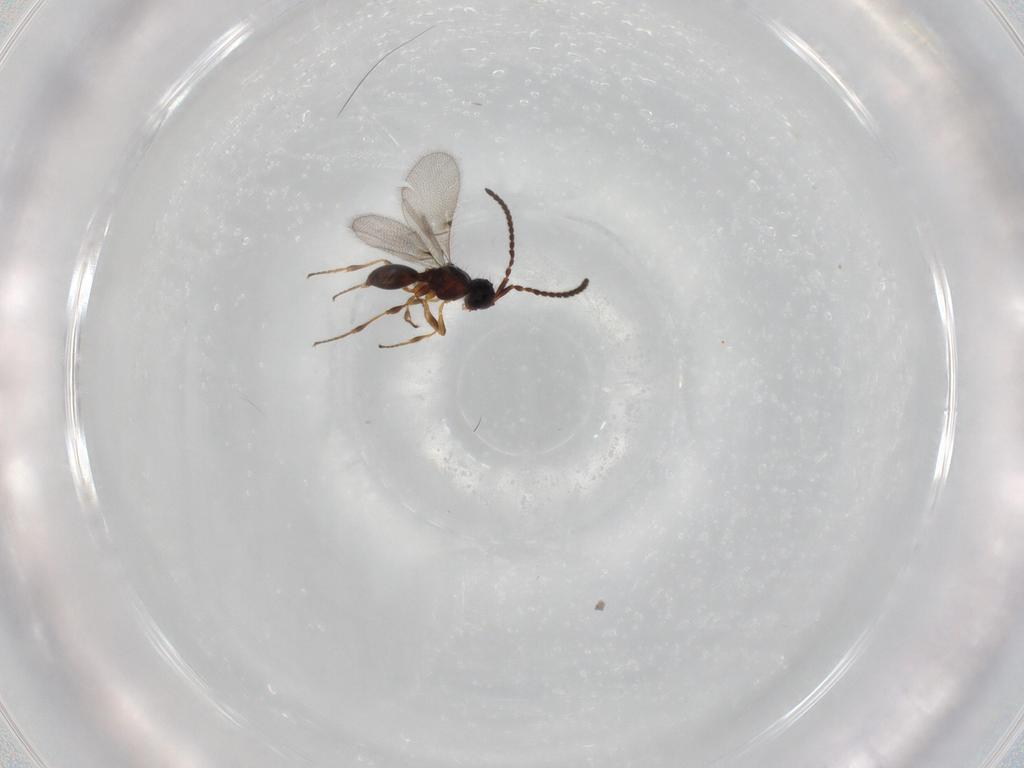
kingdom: Animalia
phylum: Arthropoda
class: Insecta
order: Hymenoptera
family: Diapriidae
